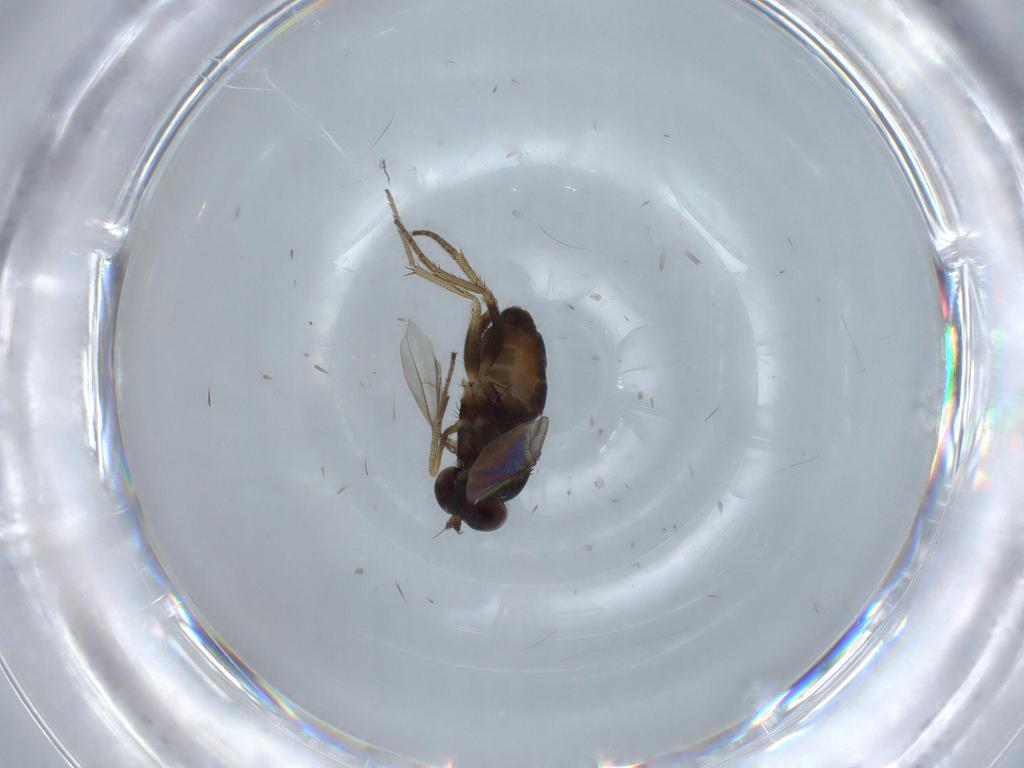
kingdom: Animalia
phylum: Arthropoda
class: Insecta
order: Diptera
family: Dolichopodidae
